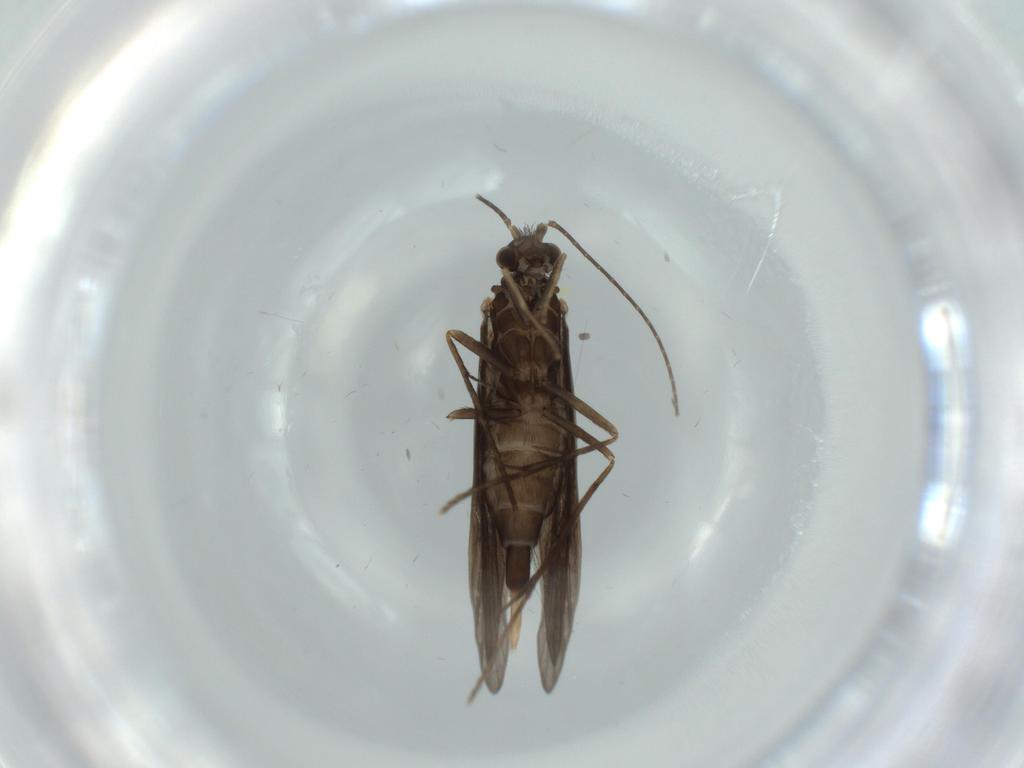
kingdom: Animalia
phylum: Arthropoda
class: Insecta
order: Trichoptera
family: Xiphocentronidae
